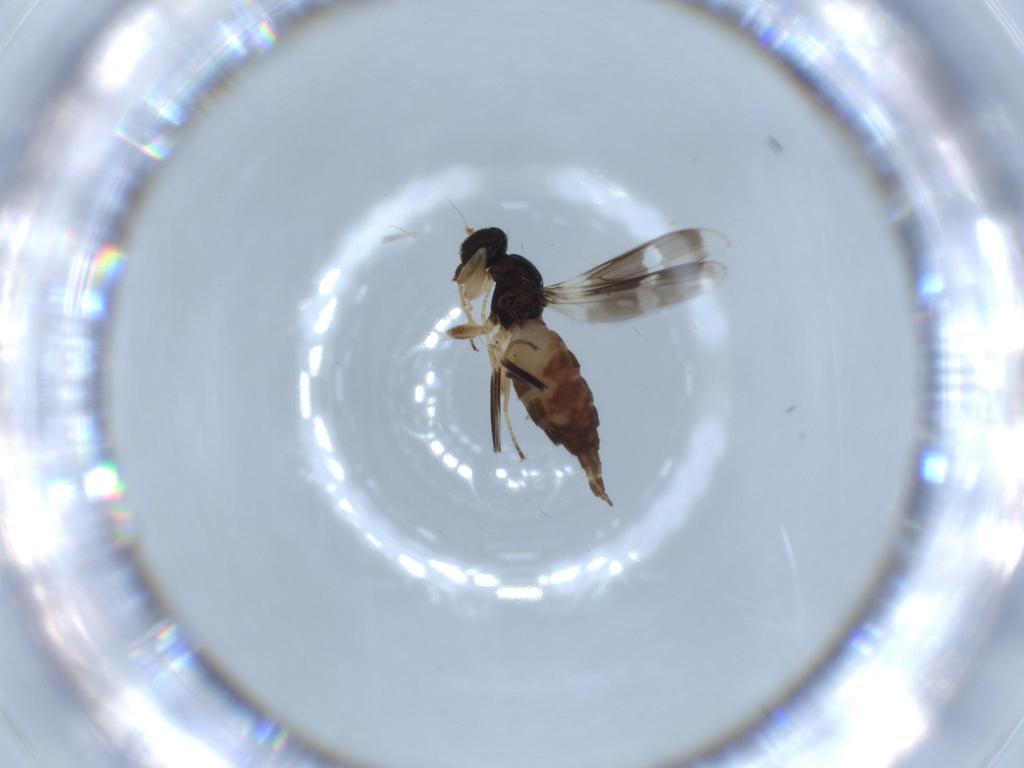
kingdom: Animalia
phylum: Arthropoda
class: Insecta
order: Diptera
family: Hybotidae
